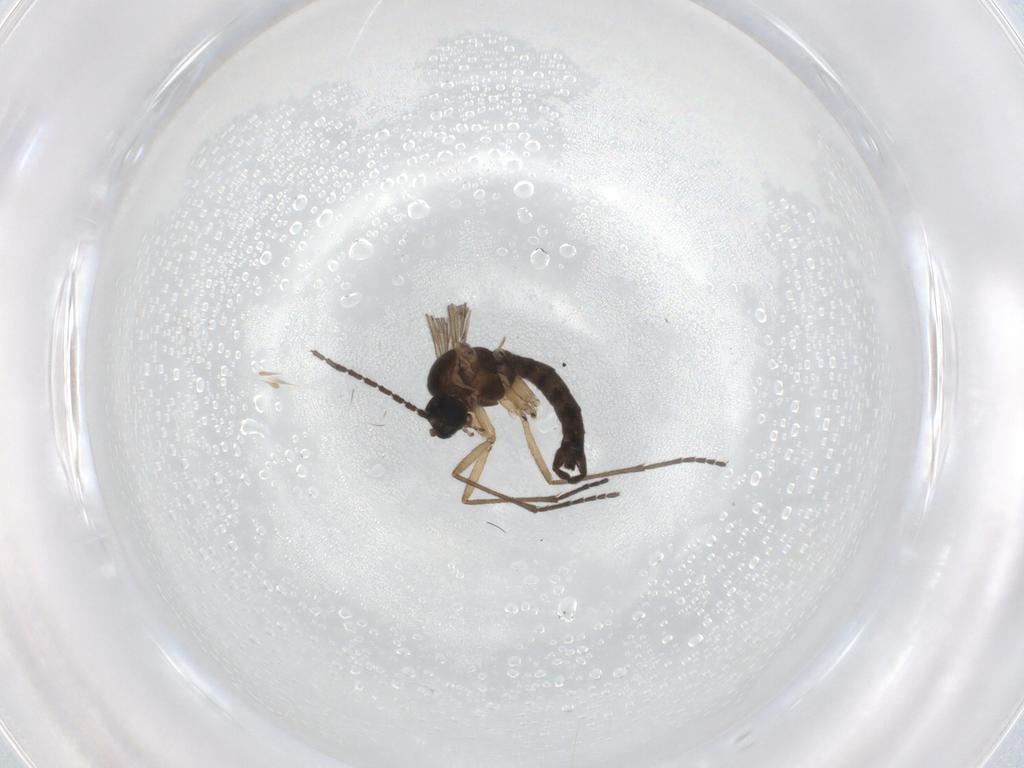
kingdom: Animalia
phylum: Arthropoda
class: Insecta
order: Diptera
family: Sciaridae
